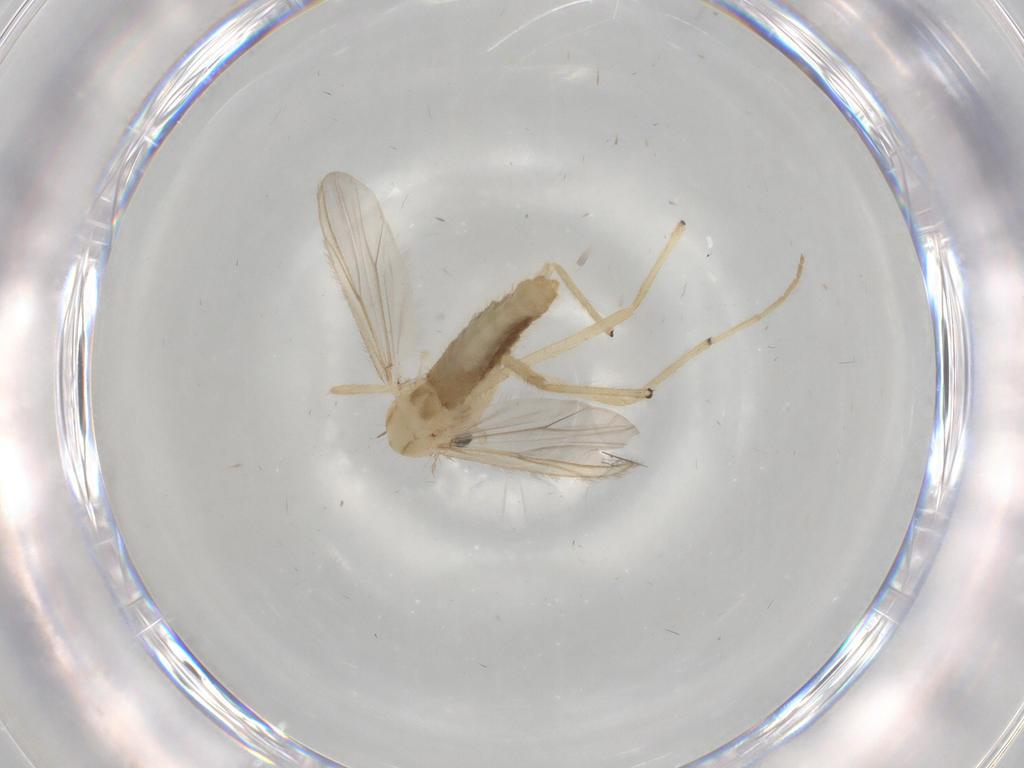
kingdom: Animalia
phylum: Arthropoda
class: Insecta
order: Diptera
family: Chironomidae
